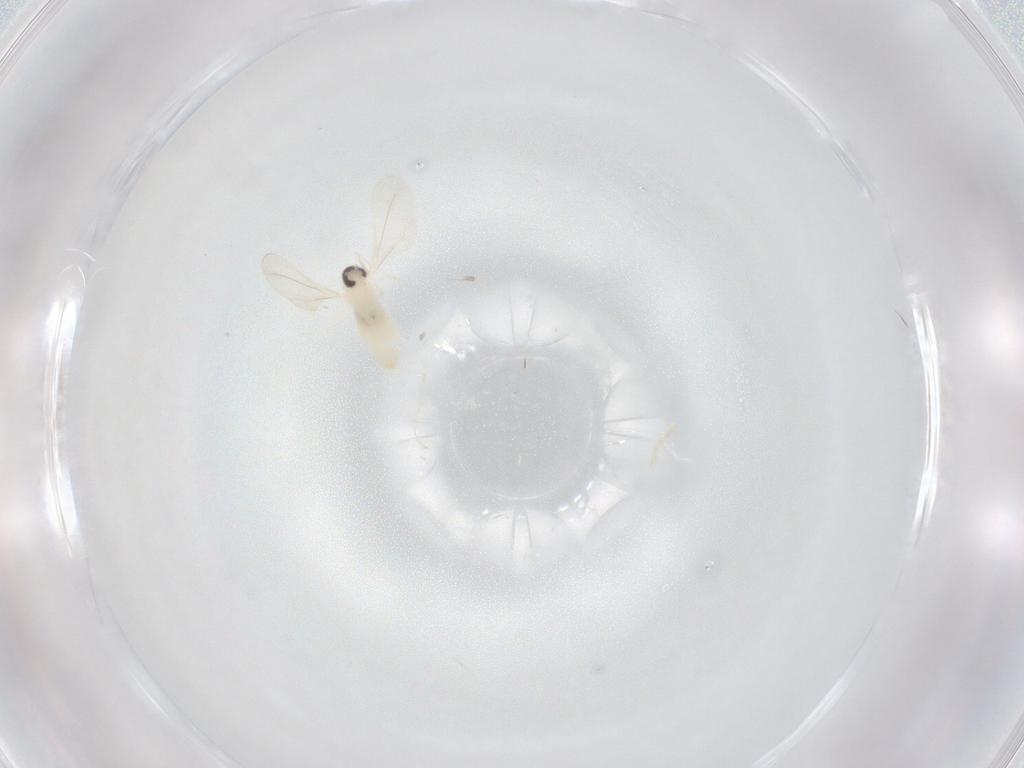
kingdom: Animalia
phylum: Arthropoda
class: Insecta
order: Diptera
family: Cecidomyiidae
